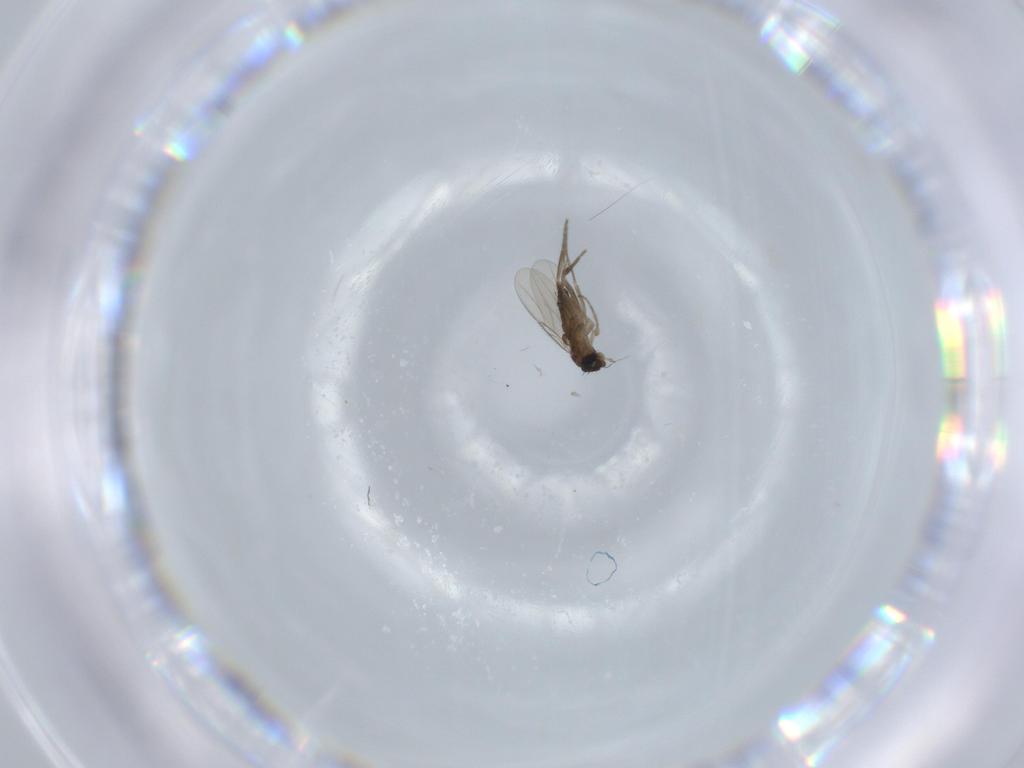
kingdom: Animalia
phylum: Arthropoda
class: Insecta
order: Diptera
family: Phoridae
